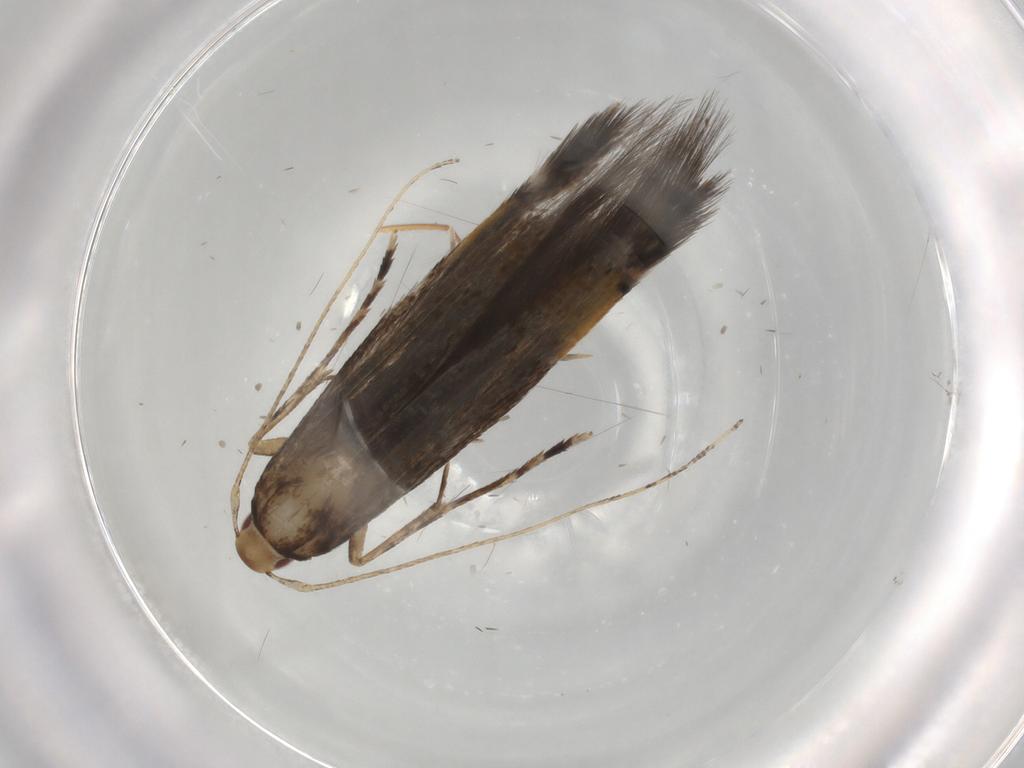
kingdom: Animalia
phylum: Arthropoda
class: Insecta
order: Lepidoptera
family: Cosmopterigidae
